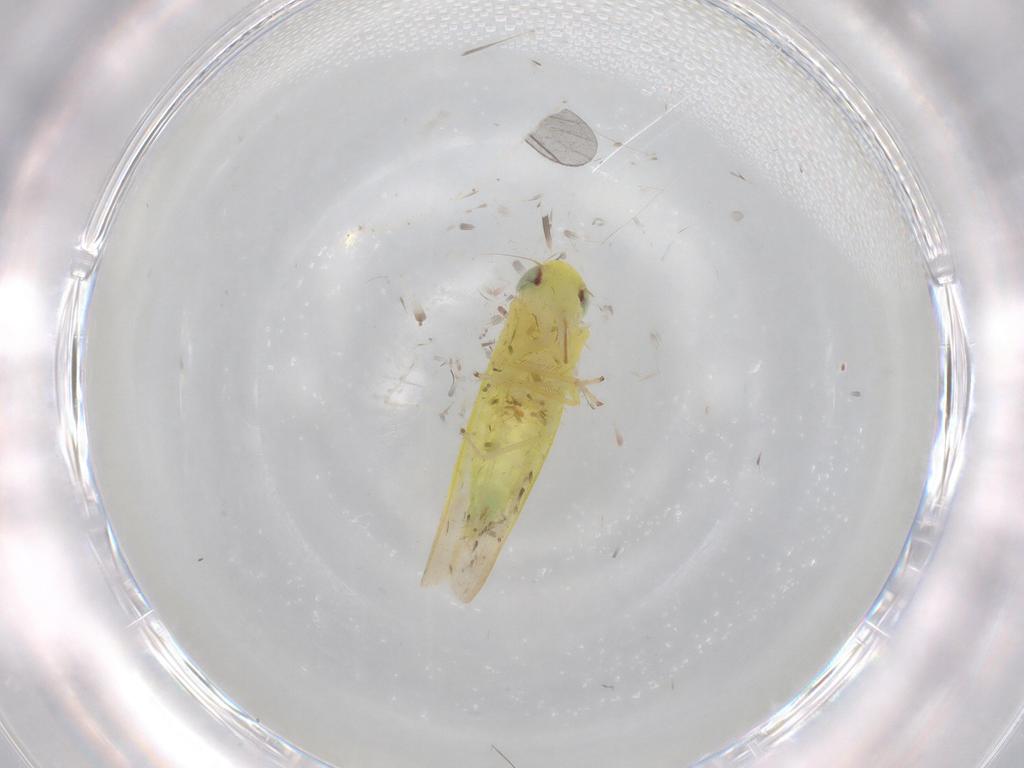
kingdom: Animalia
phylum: Arthropoda
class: Insecta
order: Hemiptera
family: Cicadellidae
